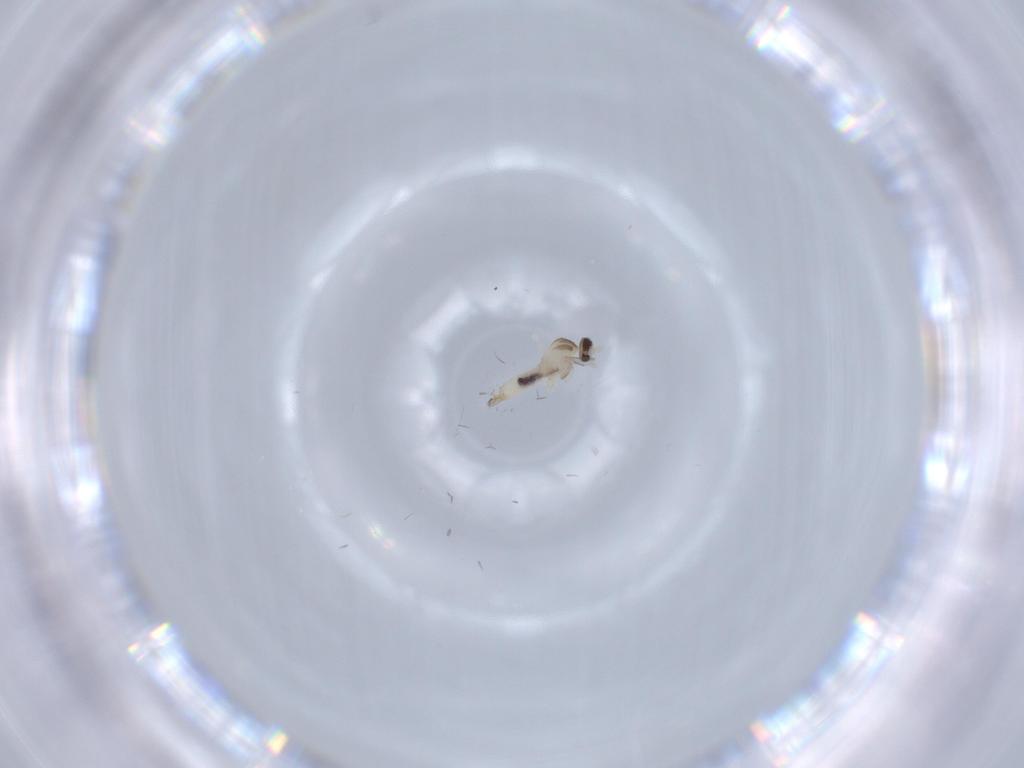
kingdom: Animalia
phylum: Arthropoda
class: Insecta
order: Diptera
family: Culicidae
